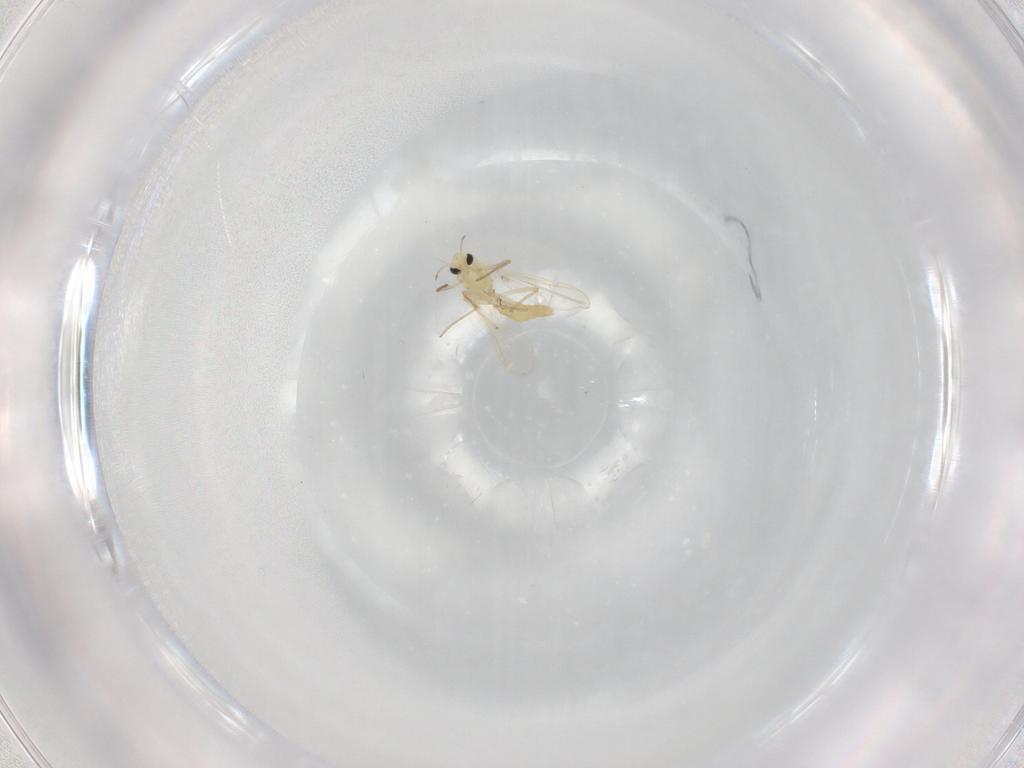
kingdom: Animalia
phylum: Arthropoda
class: Insecta
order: Diptera
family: Chironomidae
